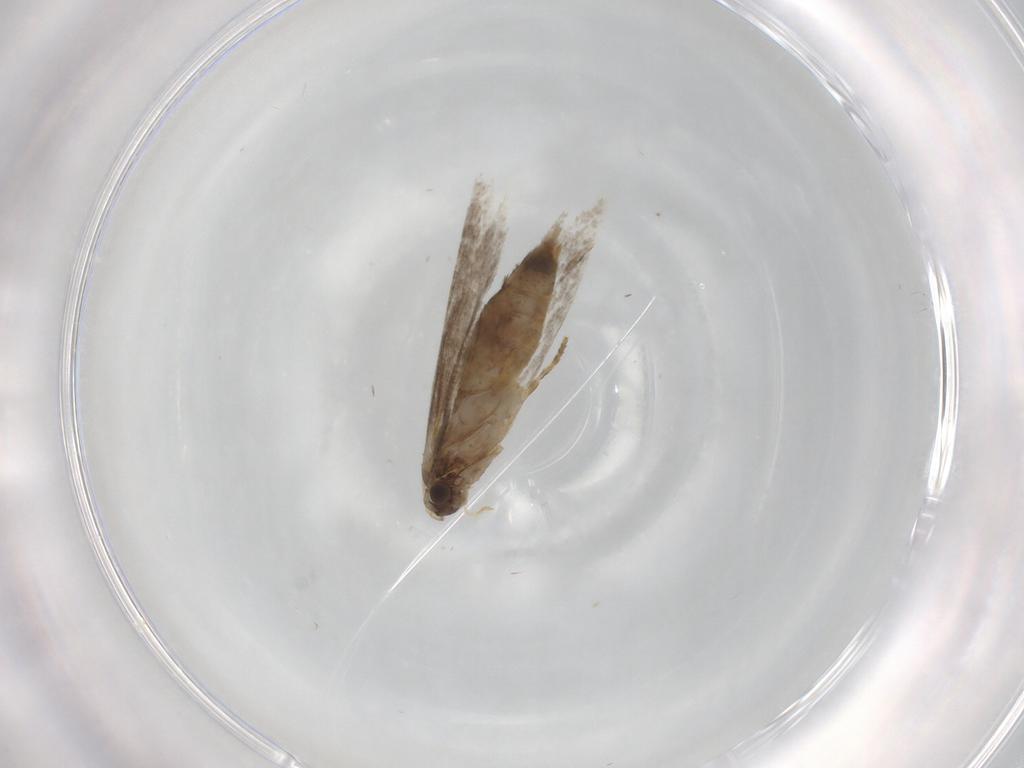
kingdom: Animalia
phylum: Arthropoda
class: Insecta
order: Lepidoptera
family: Tineidae
